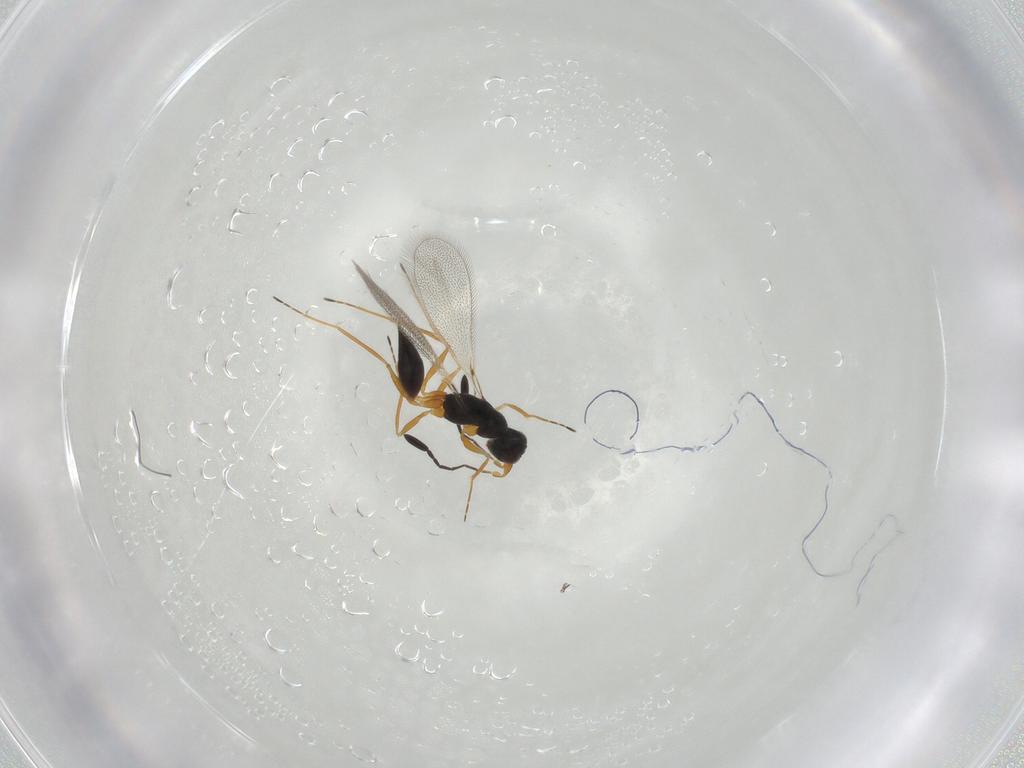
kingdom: Animalia
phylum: Arthropoda
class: Insecta
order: Hymenoptera
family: Mymaridae
